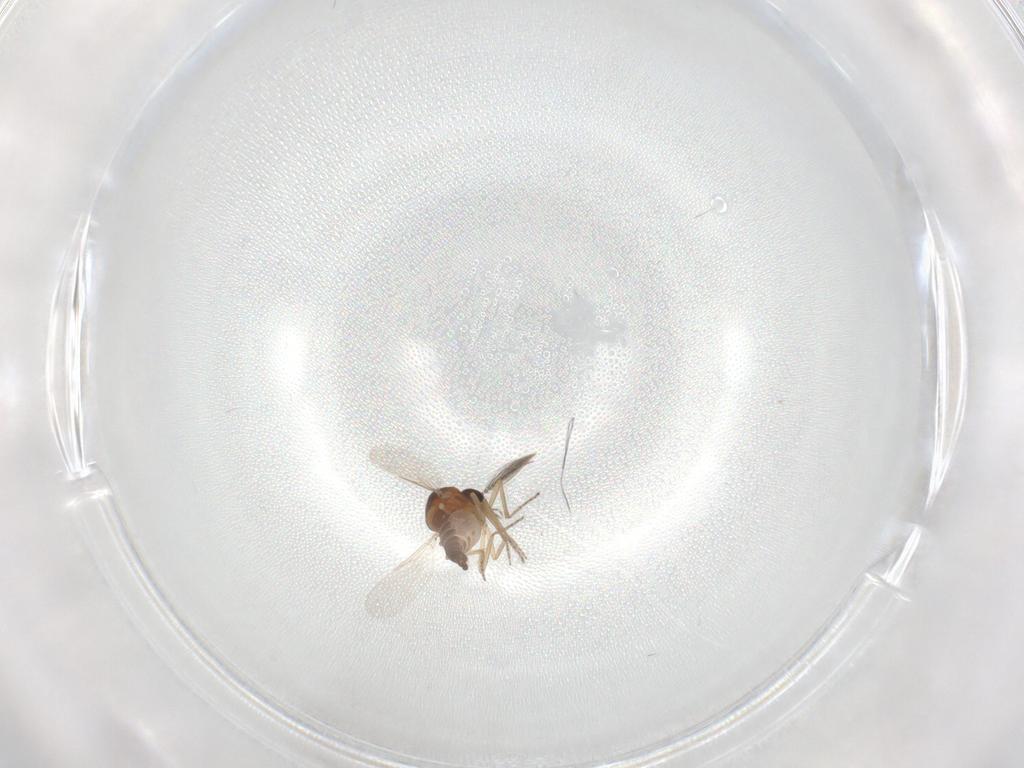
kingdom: Animalia
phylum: Arthropoda
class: Insecta
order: Diptera
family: Ceratopogonidae
